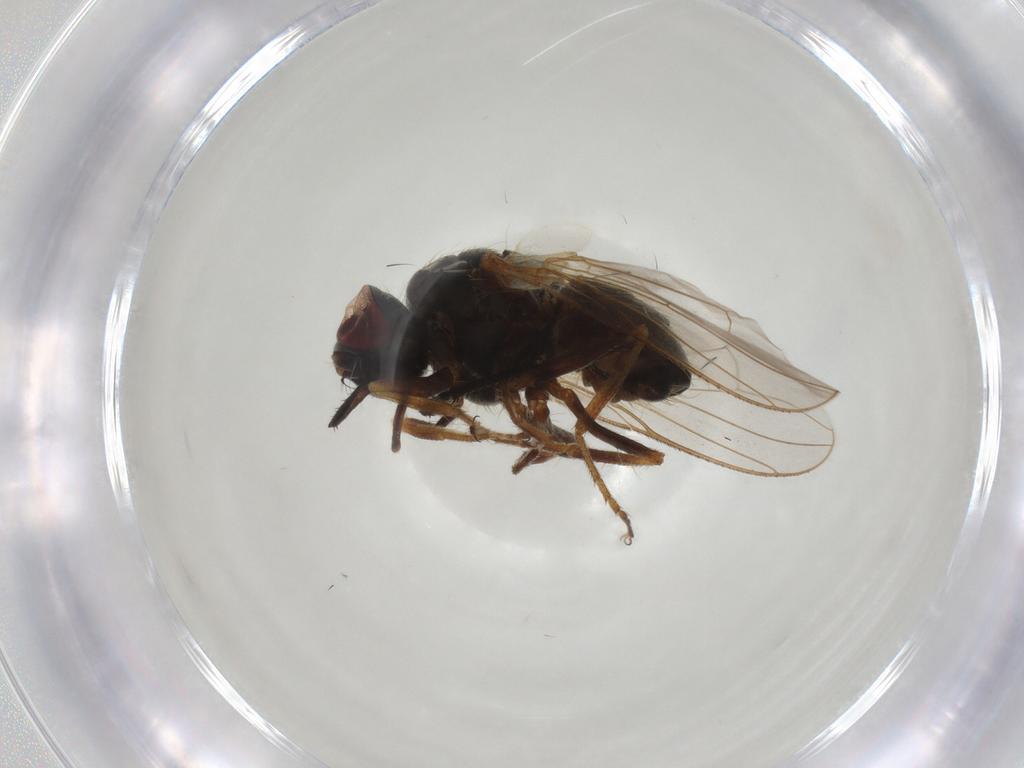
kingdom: Animalia
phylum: Arthropoda
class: Insecta
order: Diptera
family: Muscidae
